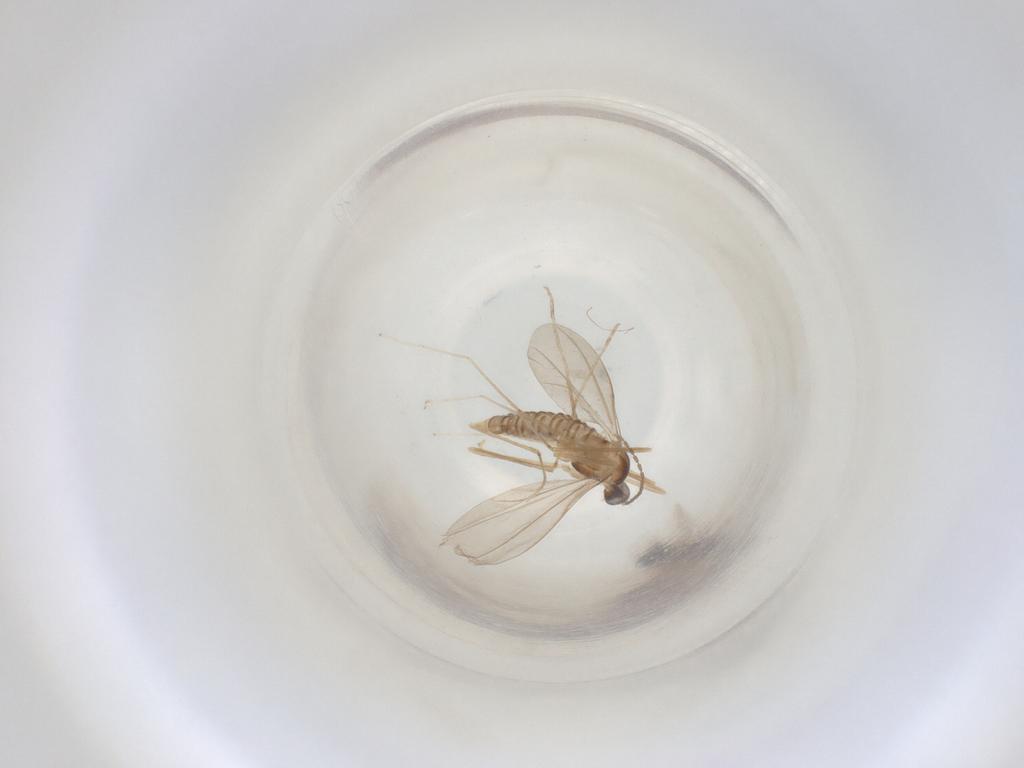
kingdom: Animalia
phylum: Arthropoda
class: Insecta
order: Diptera
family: Cecidomyiidae
